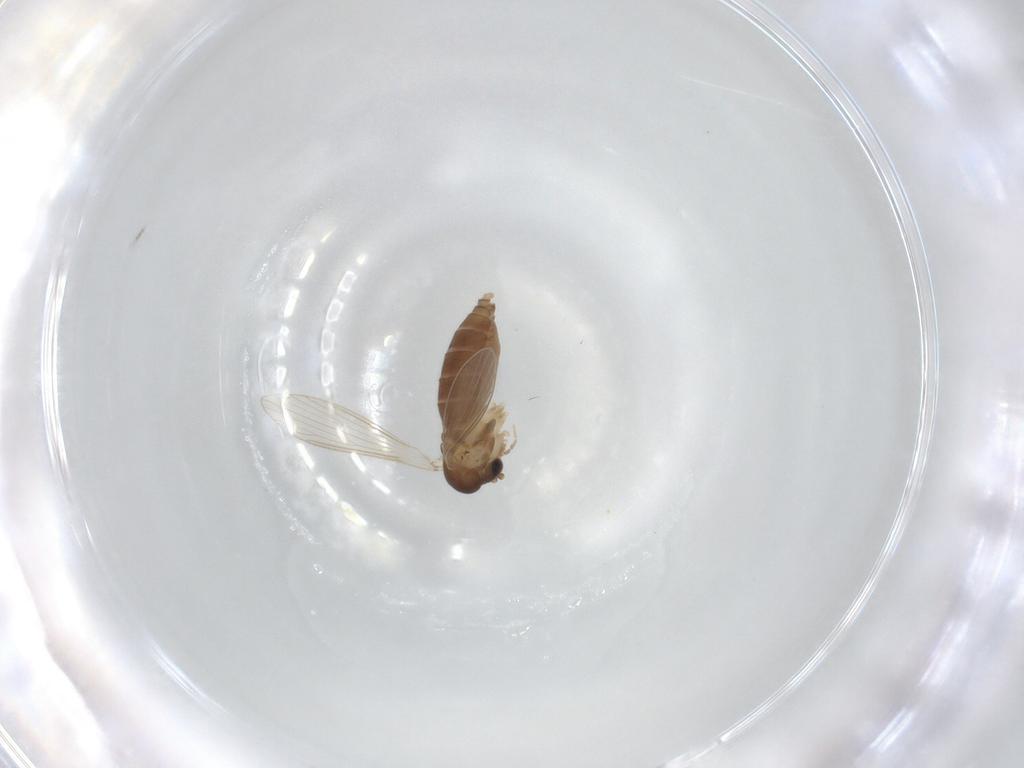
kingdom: Animalia
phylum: Arthropoda
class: Insecta
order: Diptera
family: Psychodidae
